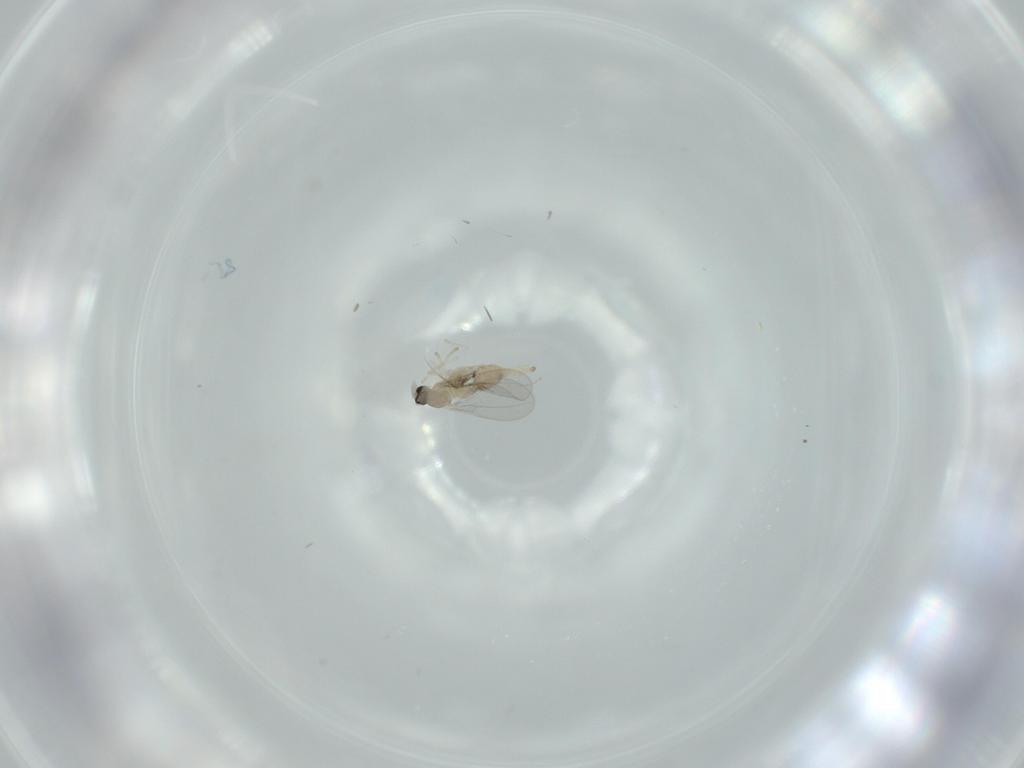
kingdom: Animalia
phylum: Arthropoda
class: Insecta
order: Diptera
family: Cecidomyiidae
